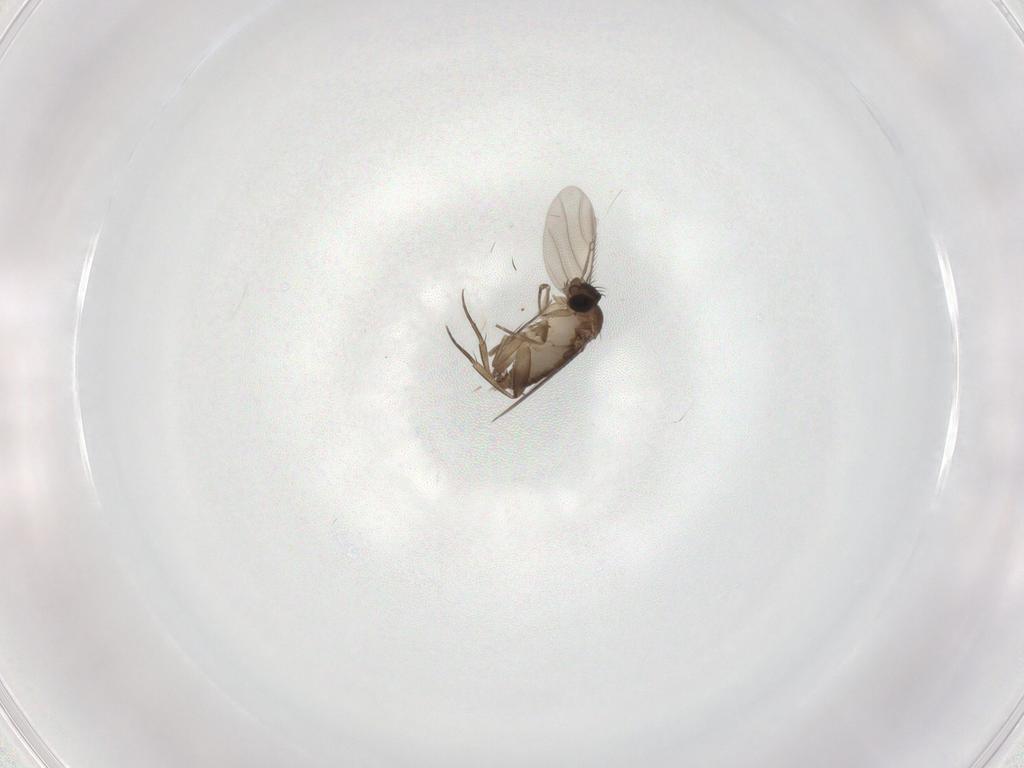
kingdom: Animalia
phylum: Arthropoda
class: Insecta
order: Diptera
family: Phoridae
